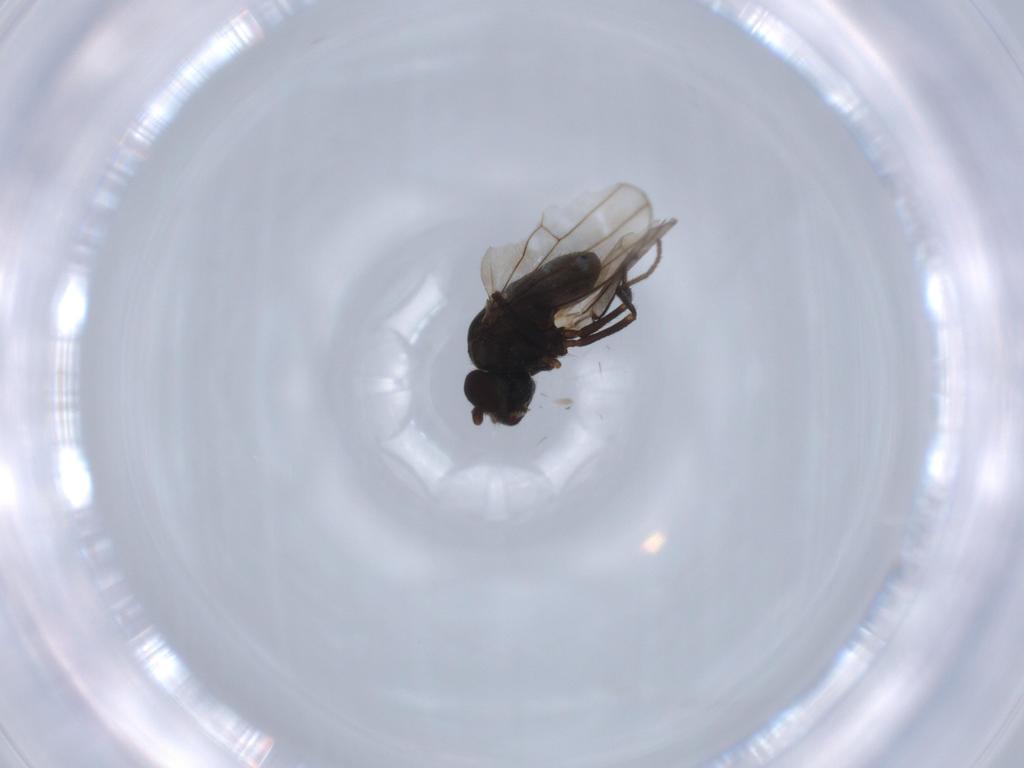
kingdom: Animalia
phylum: Arthropoda
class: Insecta
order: Diptera
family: Ephydridae
